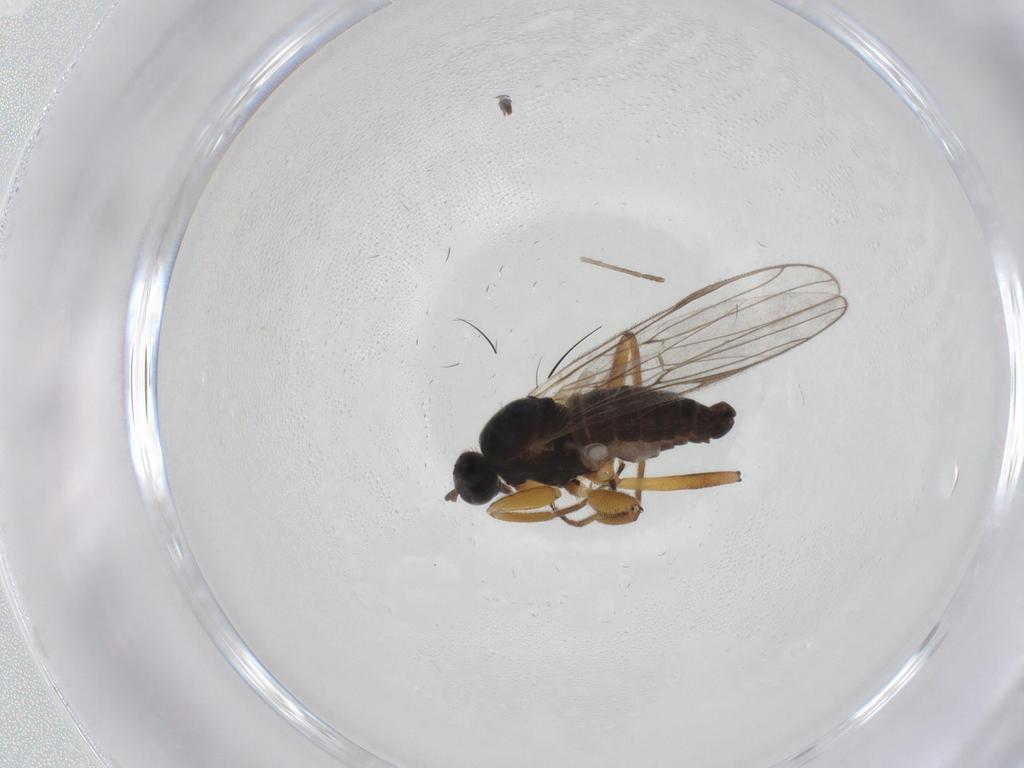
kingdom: Animalia
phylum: Arthropoda
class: Insecta
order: Diptera
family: Hybotidae
